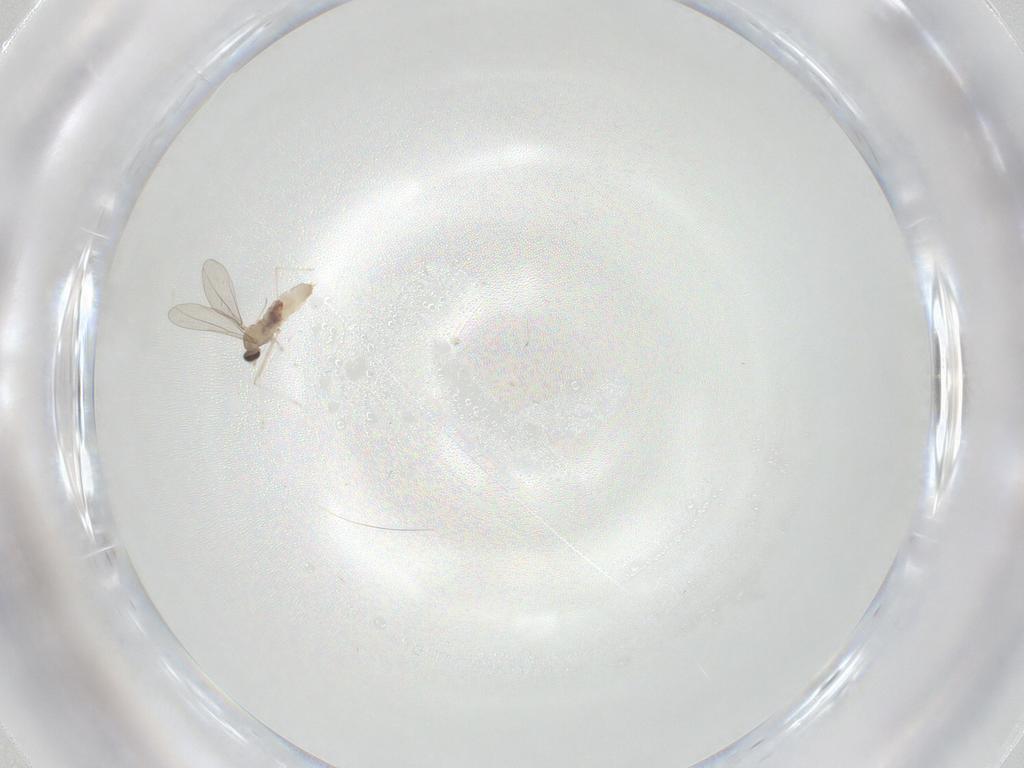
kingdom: Animalia
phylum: Arthropoda
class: Insecta
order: Diptera
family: Cecidomyiidae
